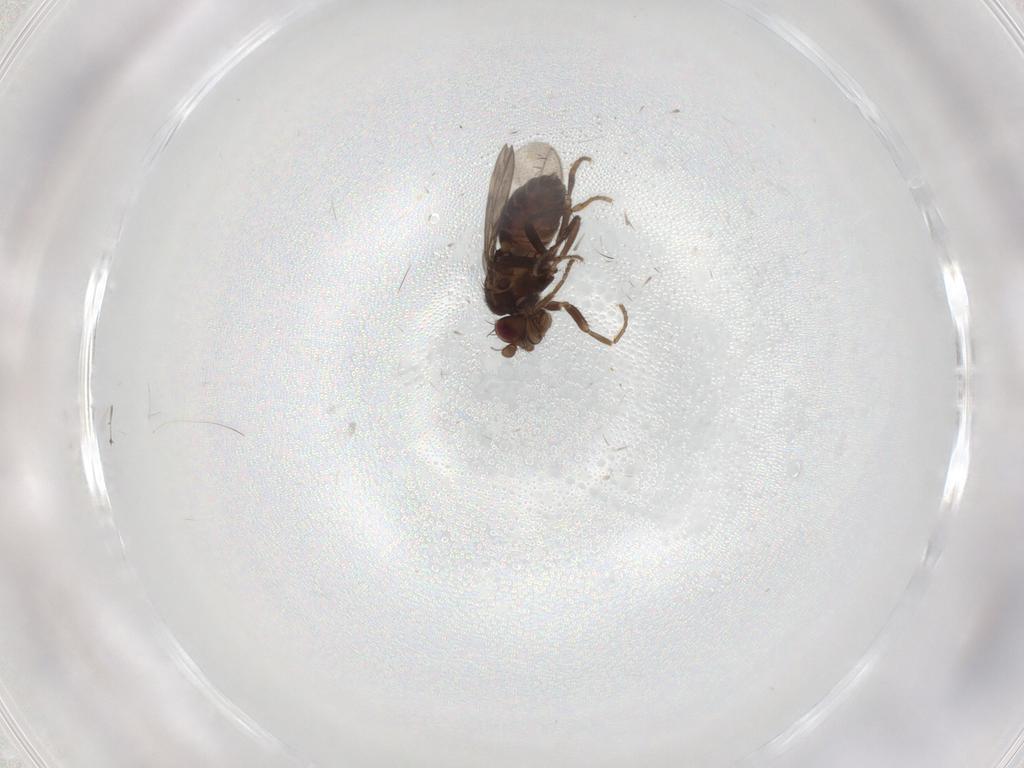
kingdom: Animalia
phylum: Arthropoda
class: Insecta
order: Diptera
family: Sphaeroceridae
